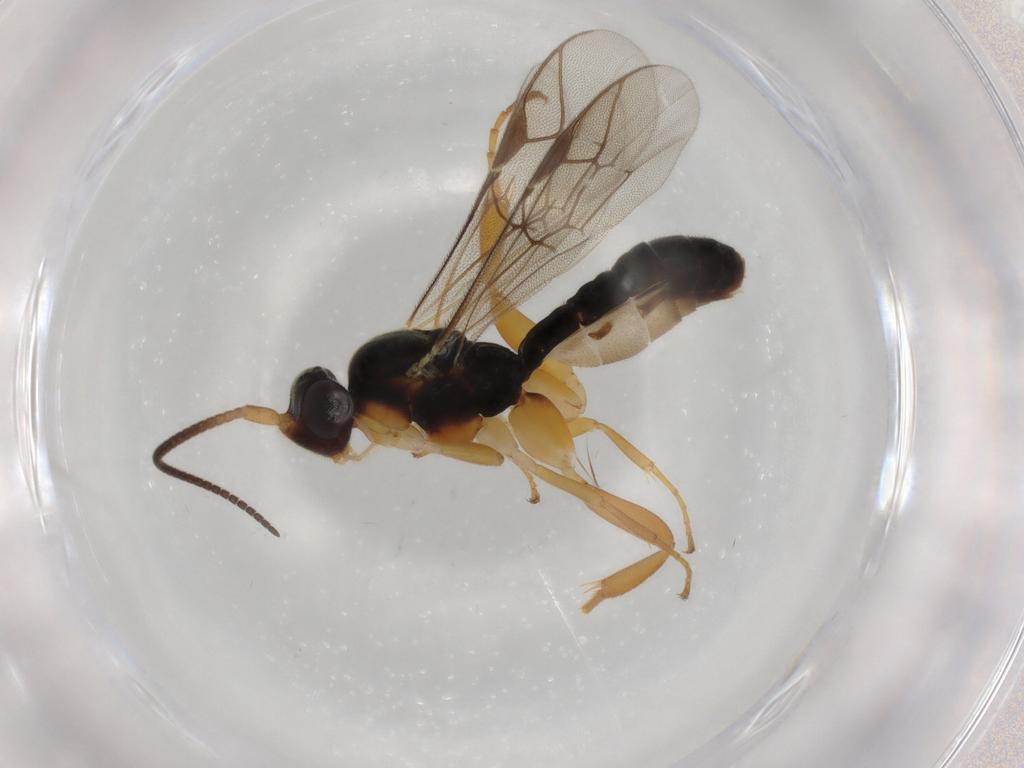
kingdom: Animalia
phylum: Arthropoda
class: Insecta
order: Hymenoptera
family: Ichneumonidae
